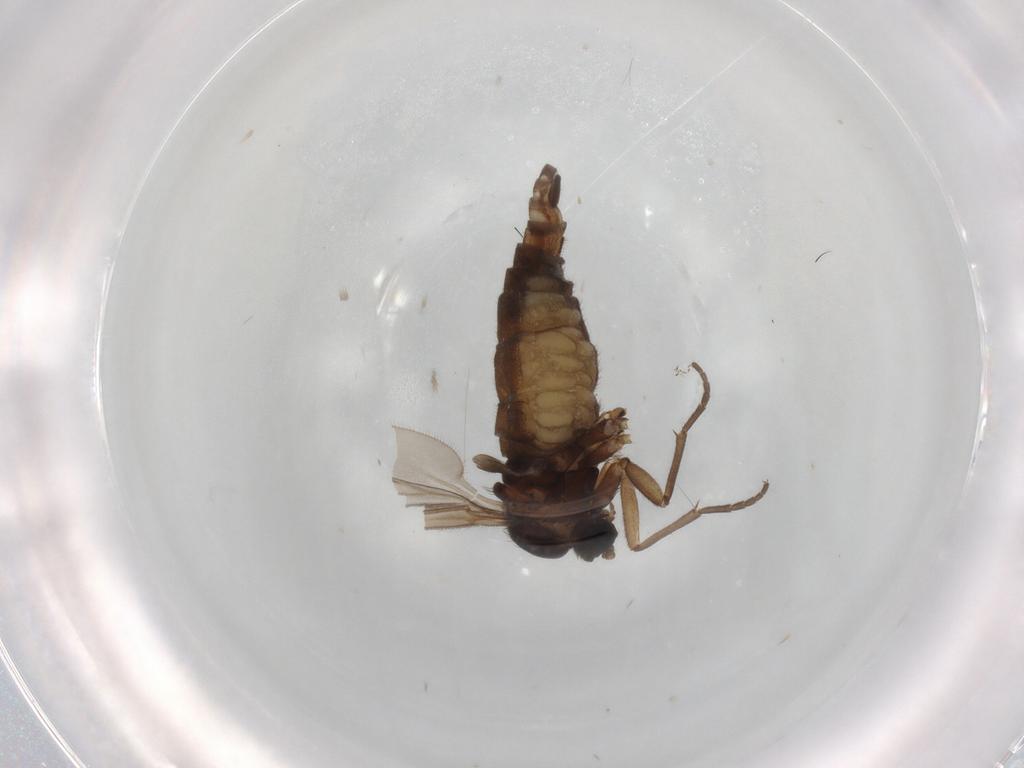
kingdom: Animalia
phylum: Arthropoda
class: Insecta
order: Diptera
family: Sciaridae
